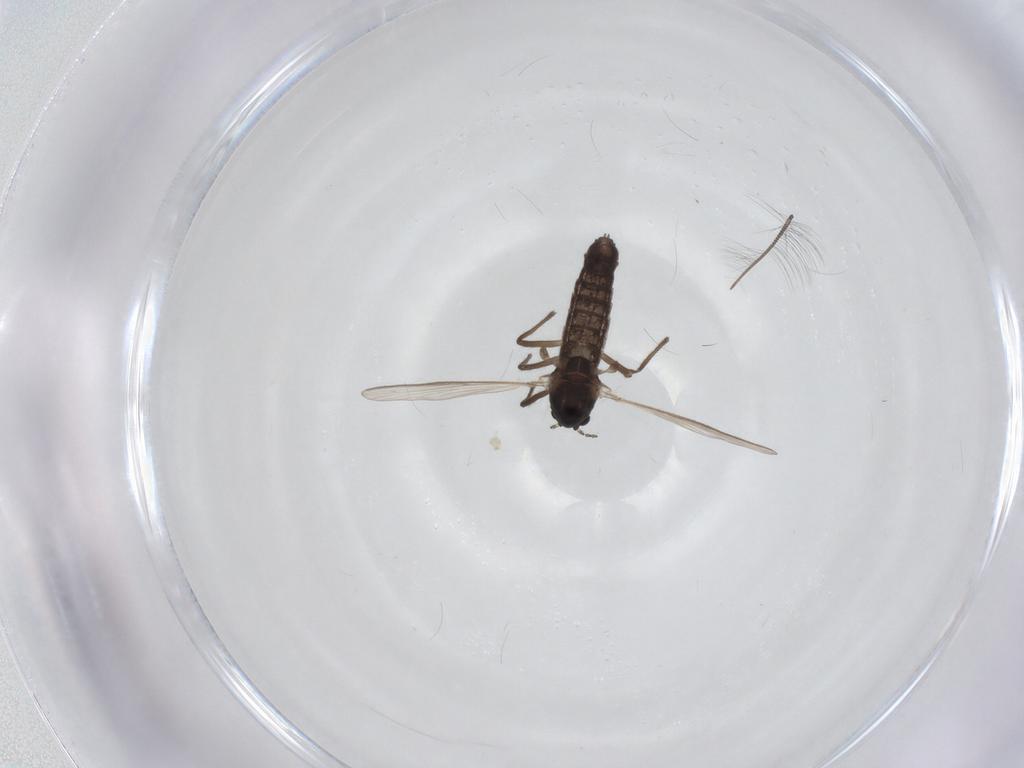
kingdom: Animalia
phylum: Arthropoda
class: Insecta
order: Diptera
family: Chironomidae
